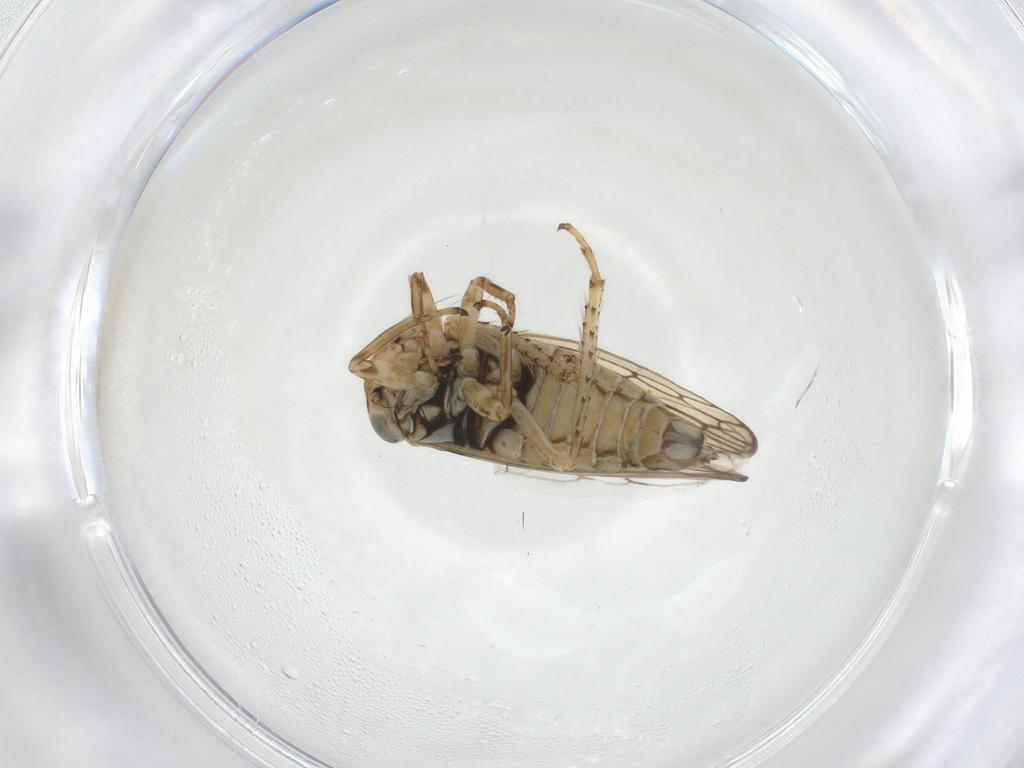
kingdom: Animalia
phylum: Arthropoda
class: Insecta
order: Hemiptera
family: Cicadellidae
